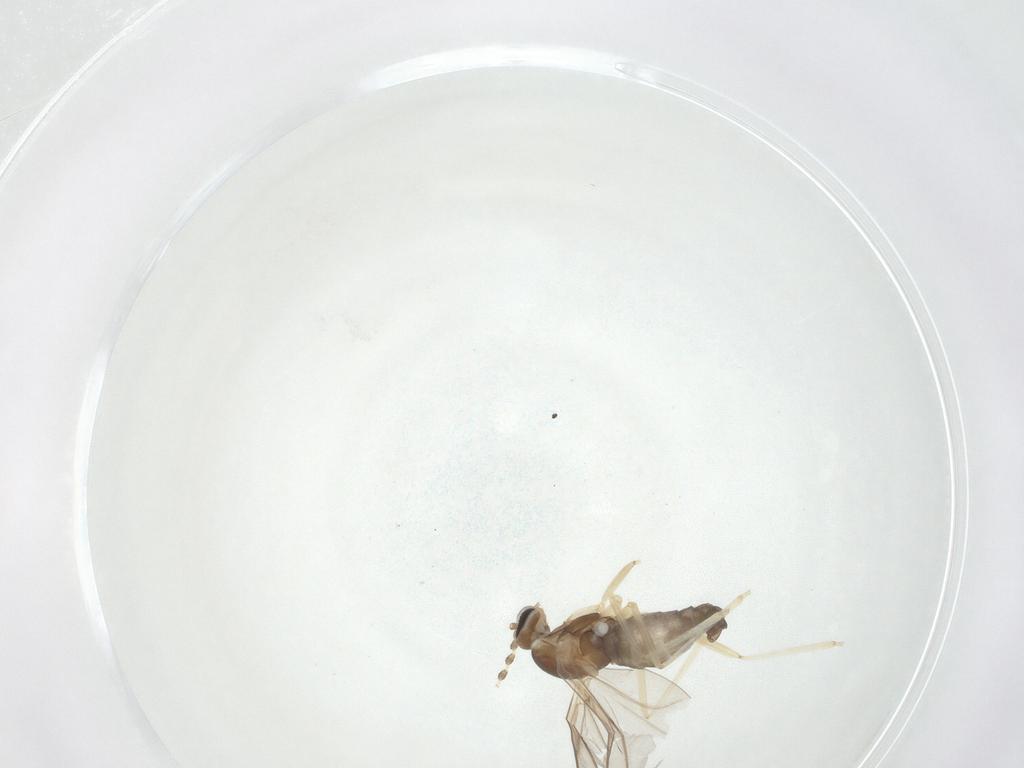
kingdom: Animalia
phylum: Arthropoda
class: Insecta
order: Diptera
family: Cecidomyiidae
